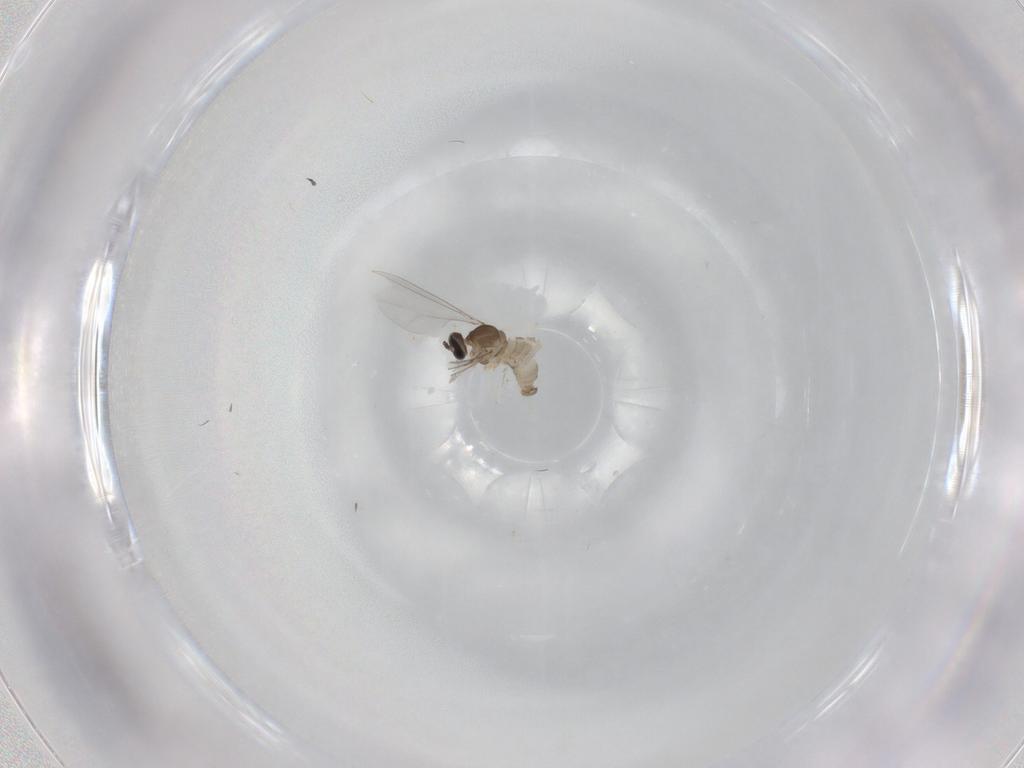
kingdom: Animalia
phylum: Arthropoda
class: Insecta
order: Diptera
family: Cecidomyiidae
